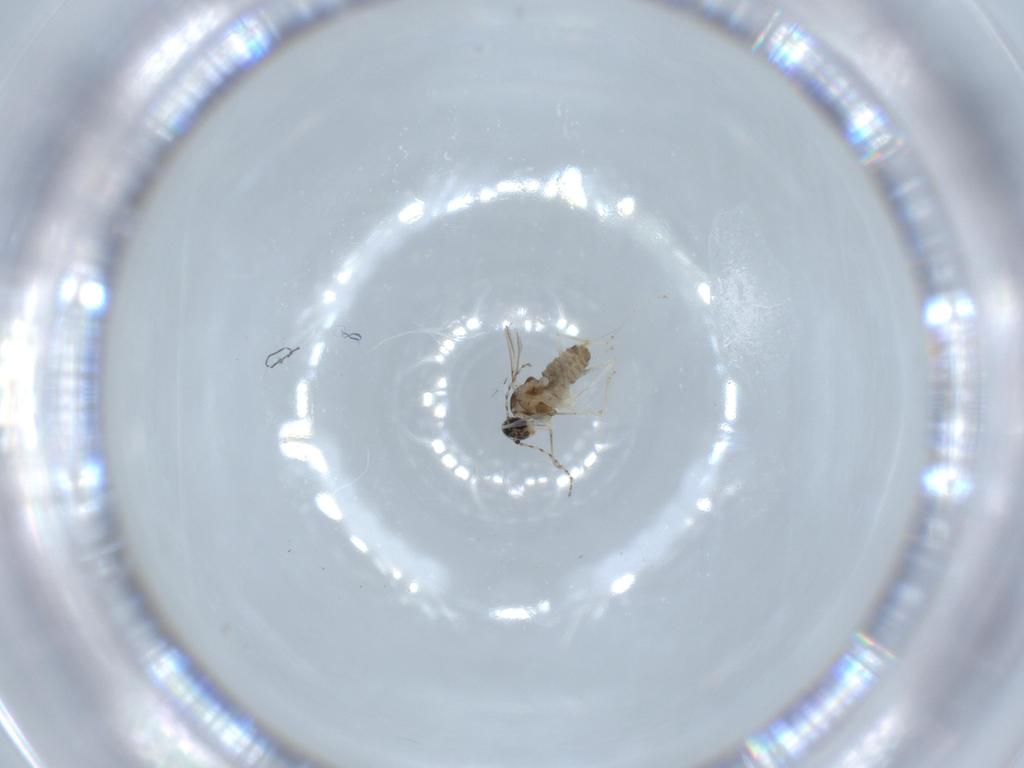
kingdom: Animalia
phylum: Arthropoda
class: Insecta
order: Diptera
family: Cecidomyiidae
